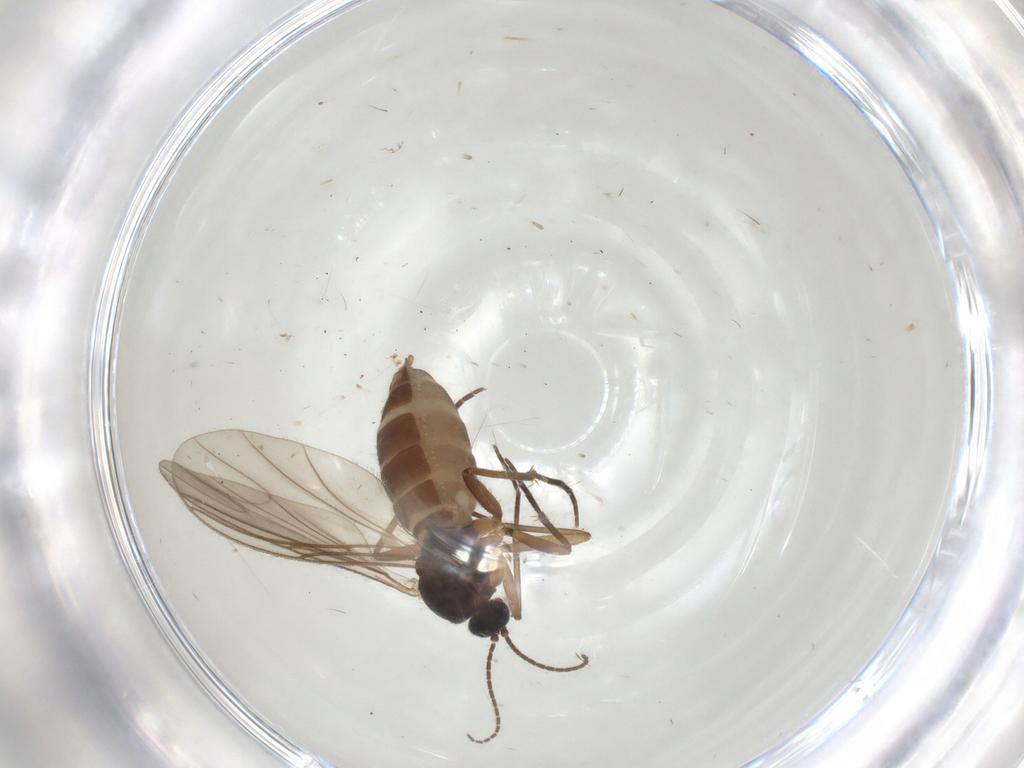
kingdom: Animalia
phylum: Arthropoda
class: Insecta
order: Diptera
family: Sciaridae
